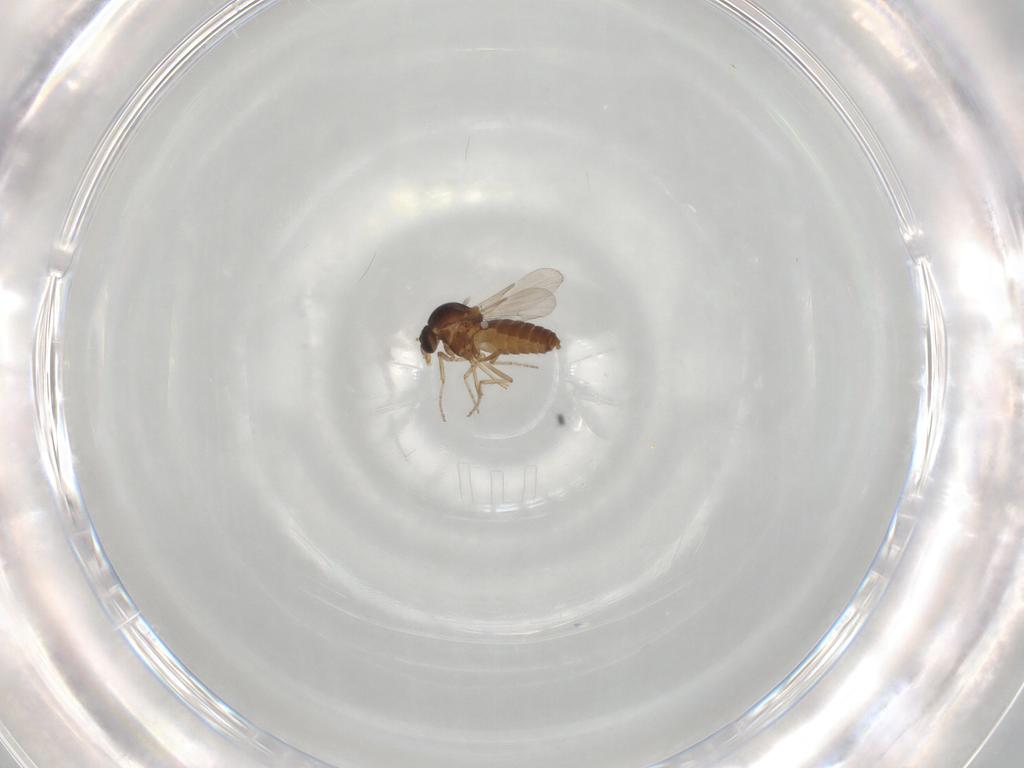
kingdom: Animalia
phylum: Arthropoda
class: Insecta
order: Diptera
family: Ceratopogonidae
